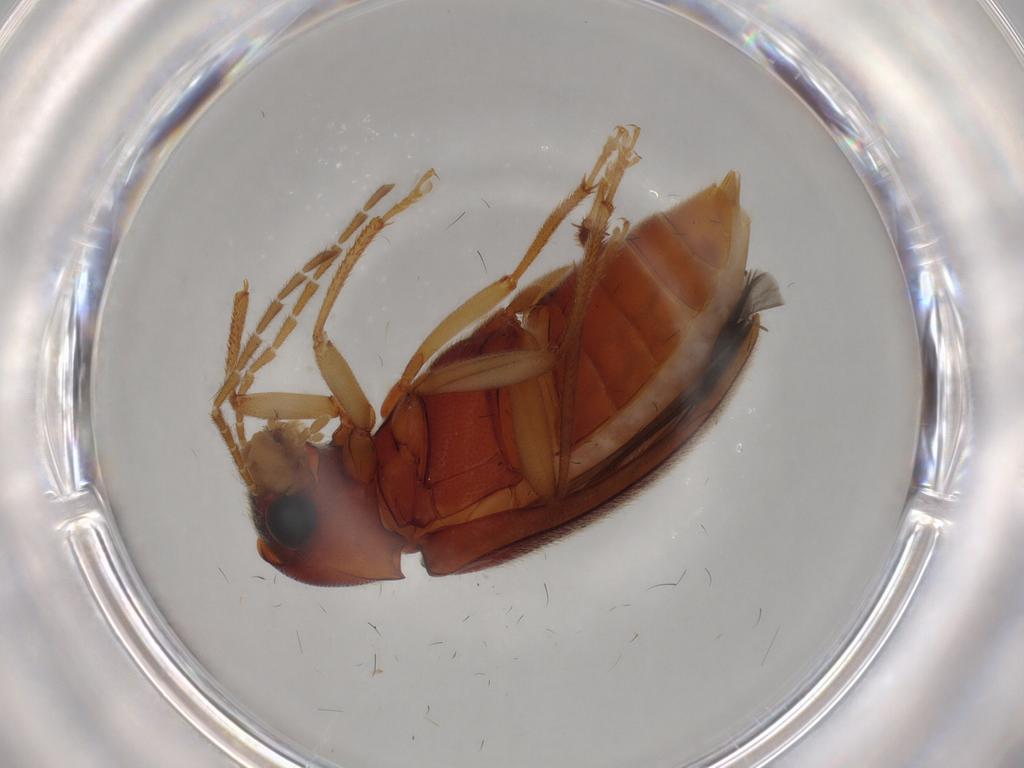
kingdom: Animalia
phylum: Arthropoda
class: Insecta
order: Coleoptera
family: Ptilodactylidae
